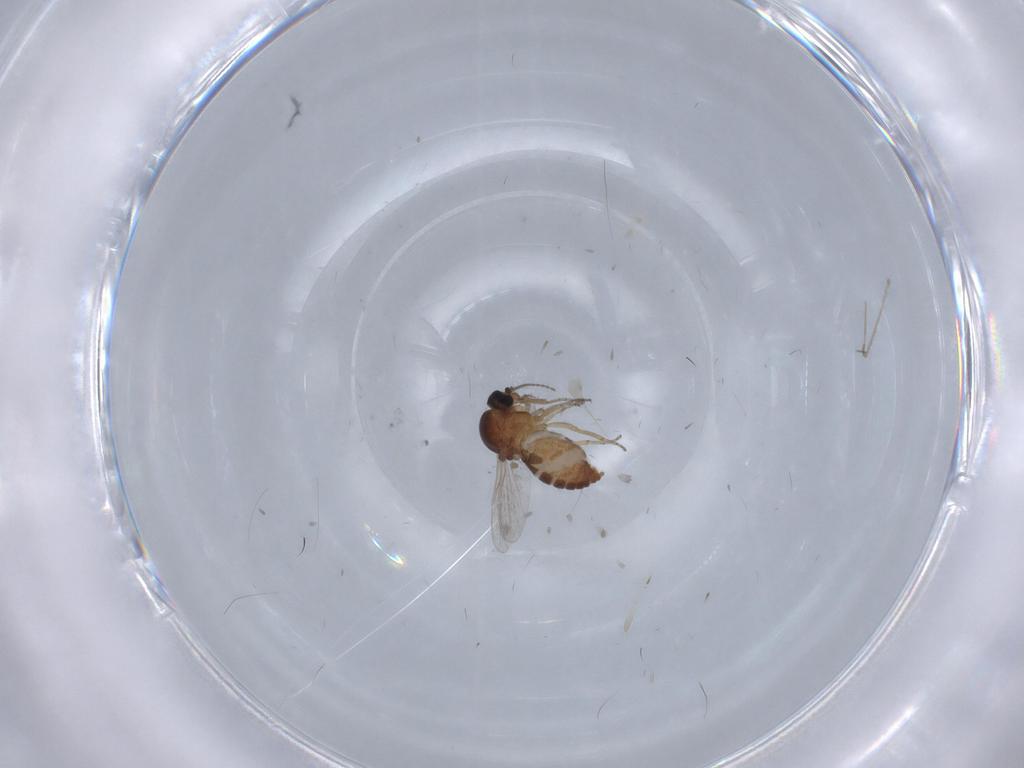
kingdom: Animalia
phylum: Arthropoda
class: Insecta
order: Diptera
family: Ceratopogonidae
